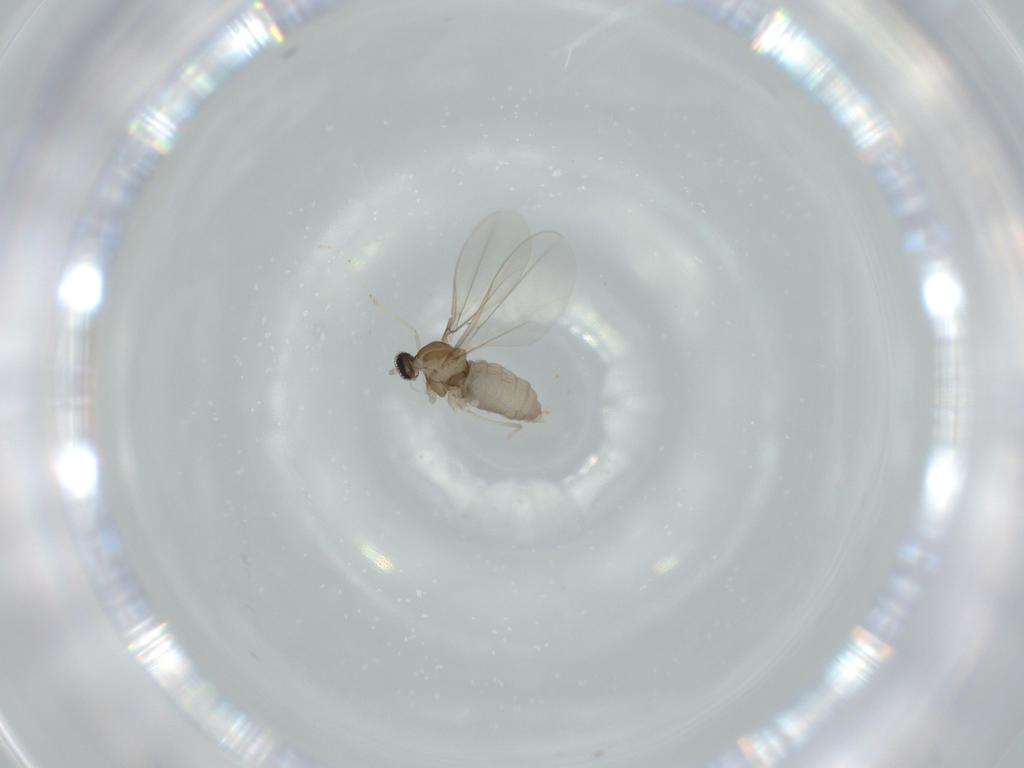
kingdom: Animalia
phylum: Arthropoda
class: Insecta
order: Diptera
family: Cecidomyiidae
